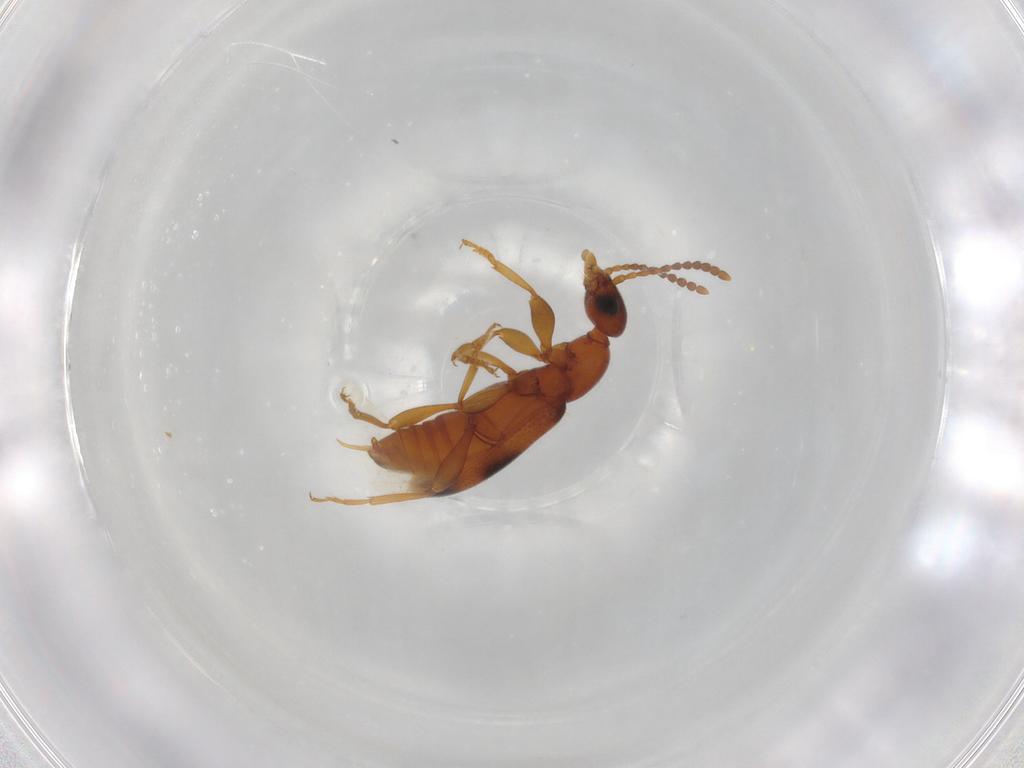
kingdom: Animalia
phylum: Arthropoda
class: Insecta
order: Coleoptera
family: Anthicidae
